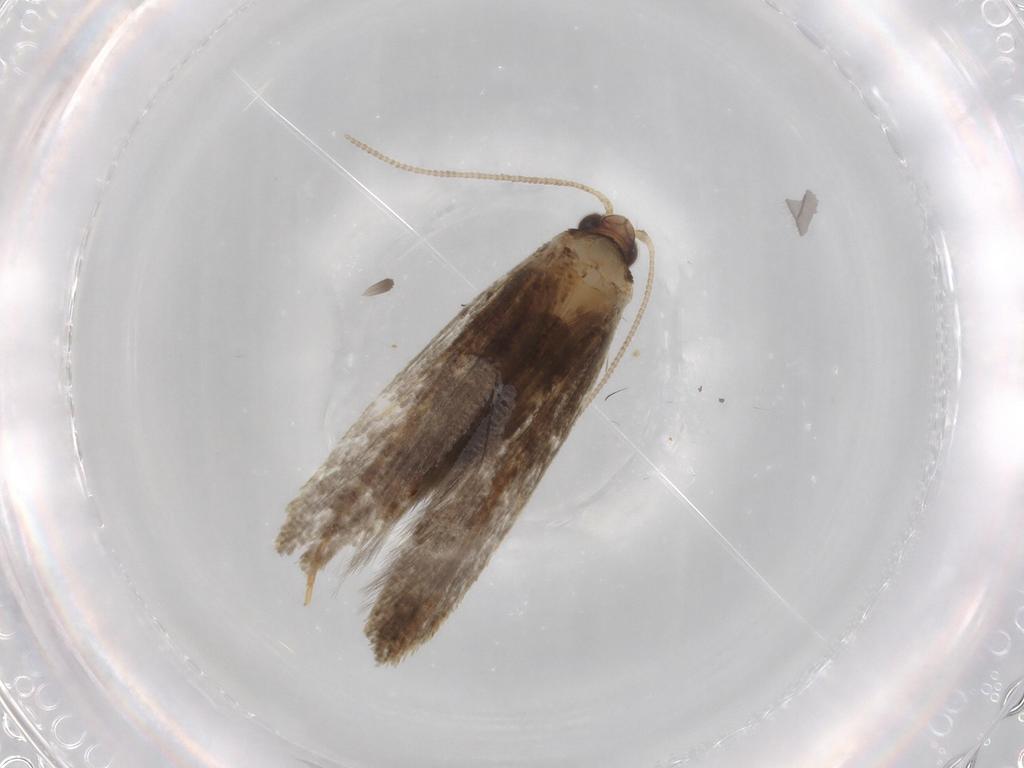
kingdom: Animalia
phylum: Arthropoda
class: Insecta
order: Lepidoptera
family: Tineidae
